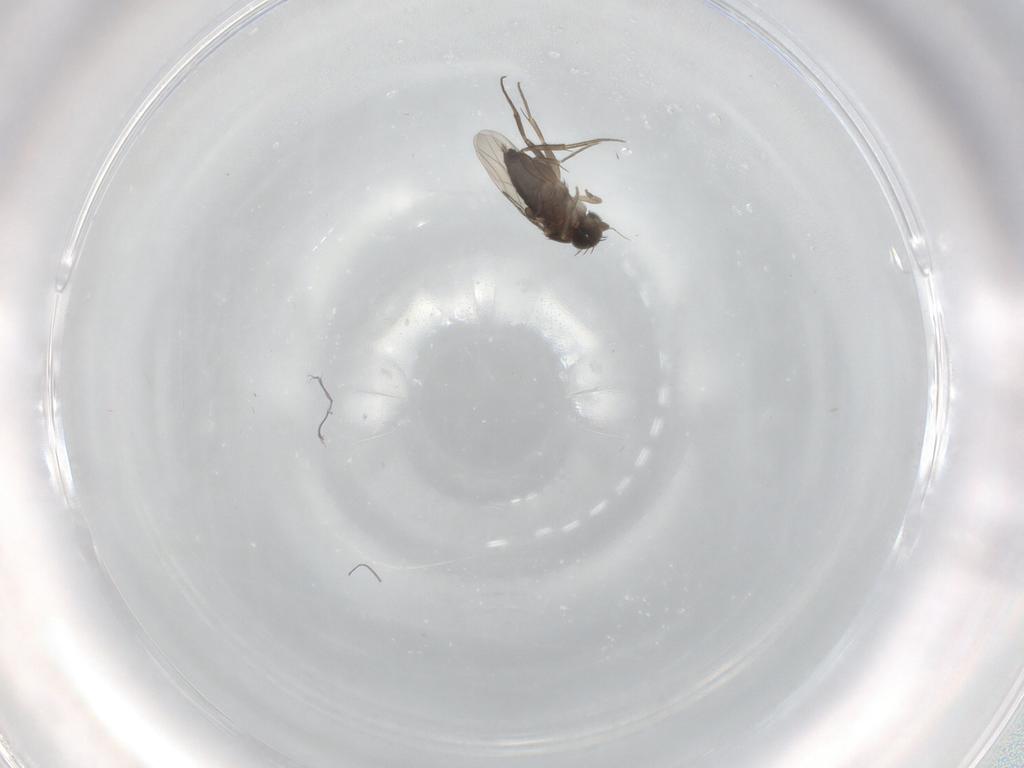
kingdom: Animalia
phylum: Arthropoda
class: Insecta
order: Diptera
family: Phoridae
